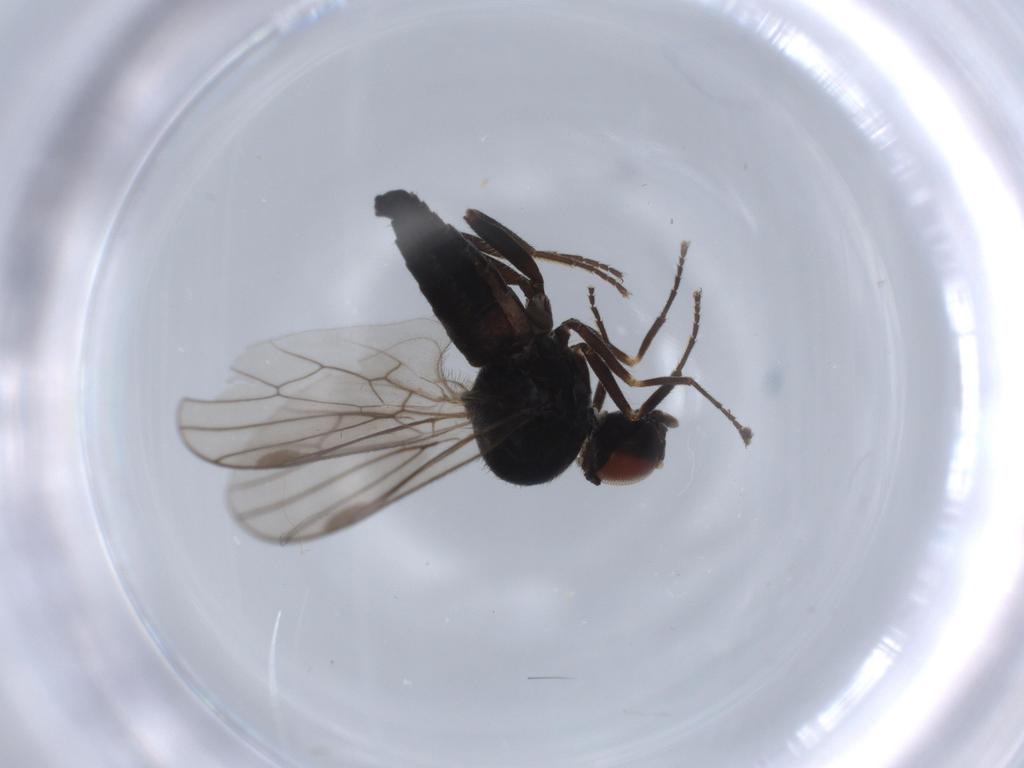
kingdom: Animalia
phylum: Arthropoda
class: Insecta
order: Diptera
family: Hybotidae
